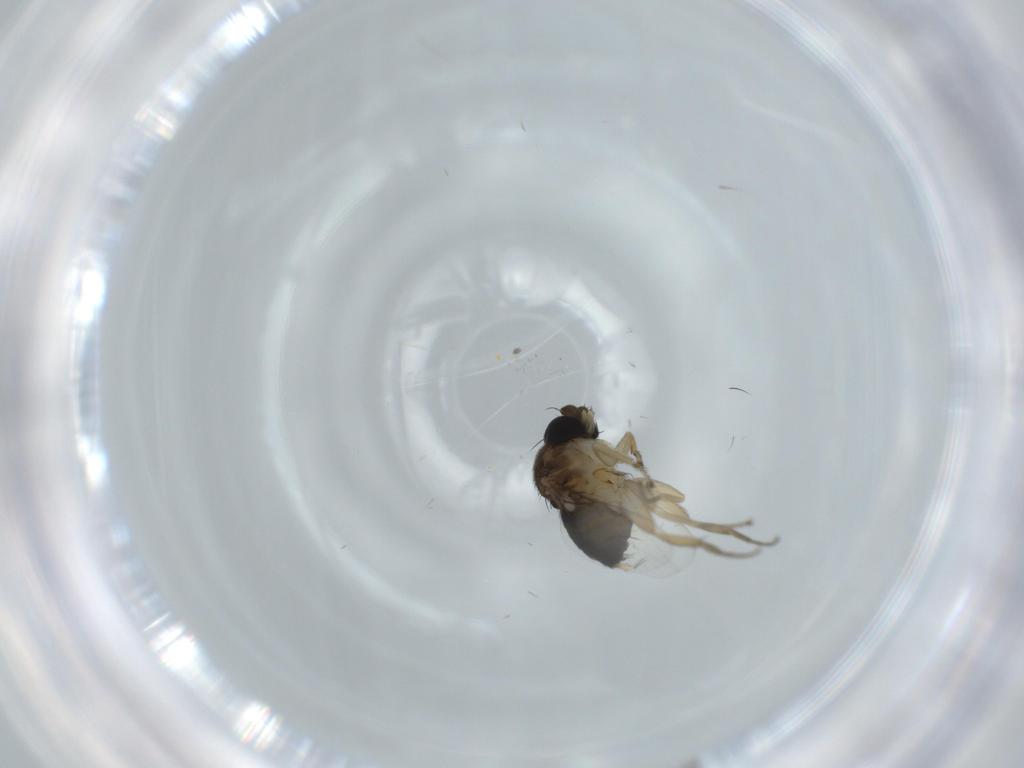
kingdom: Animalia
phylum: Arthropoda
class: Insecta
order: Diptera
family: Phoridae
